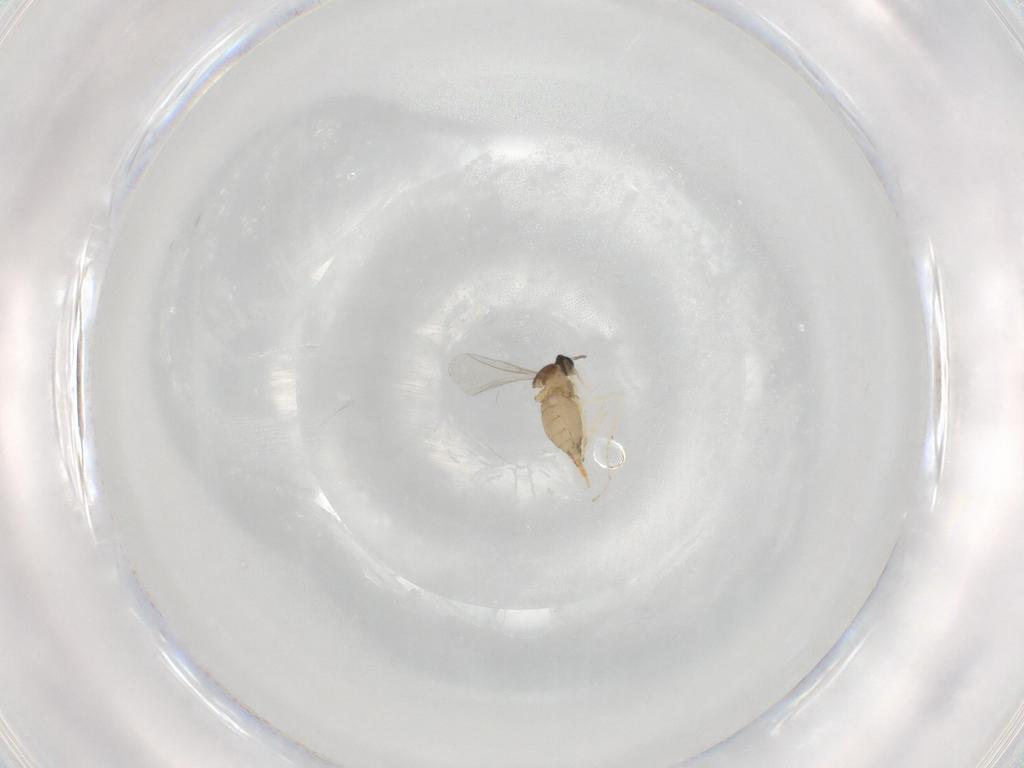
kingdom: Animalia
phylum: Arthropoda
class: Insecta
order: Diptera
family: Cecidomyiidae
